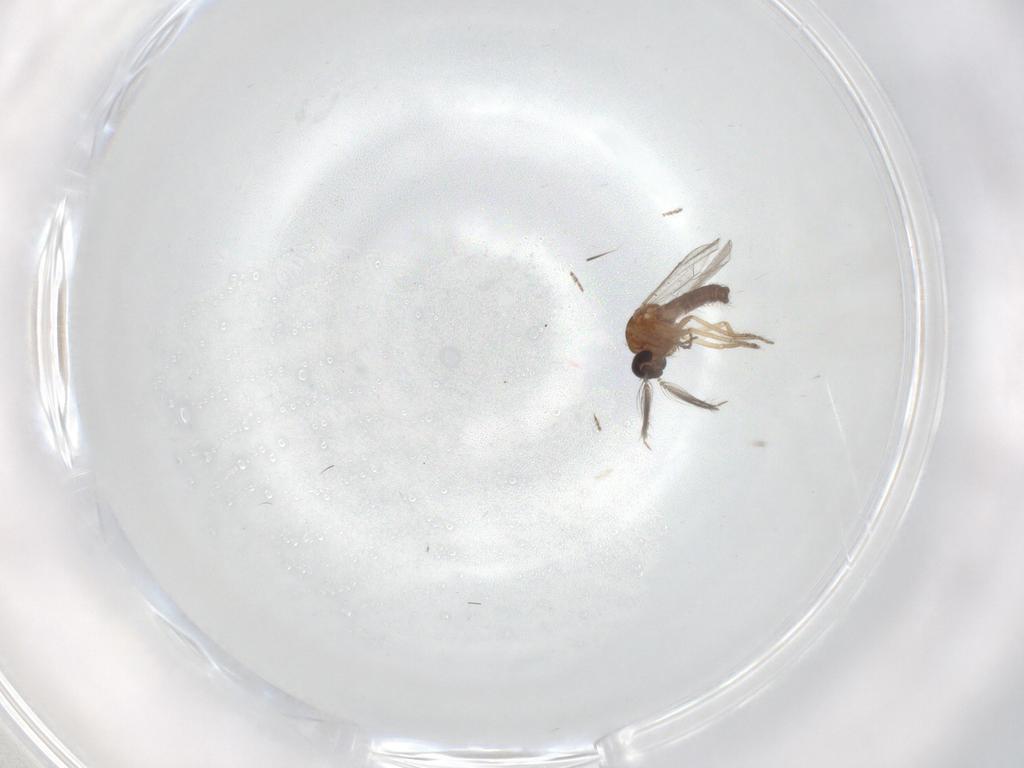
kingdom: Animalia
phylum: Arthropoda
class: Insecta
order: Diptera
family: Ceratopogonidae
